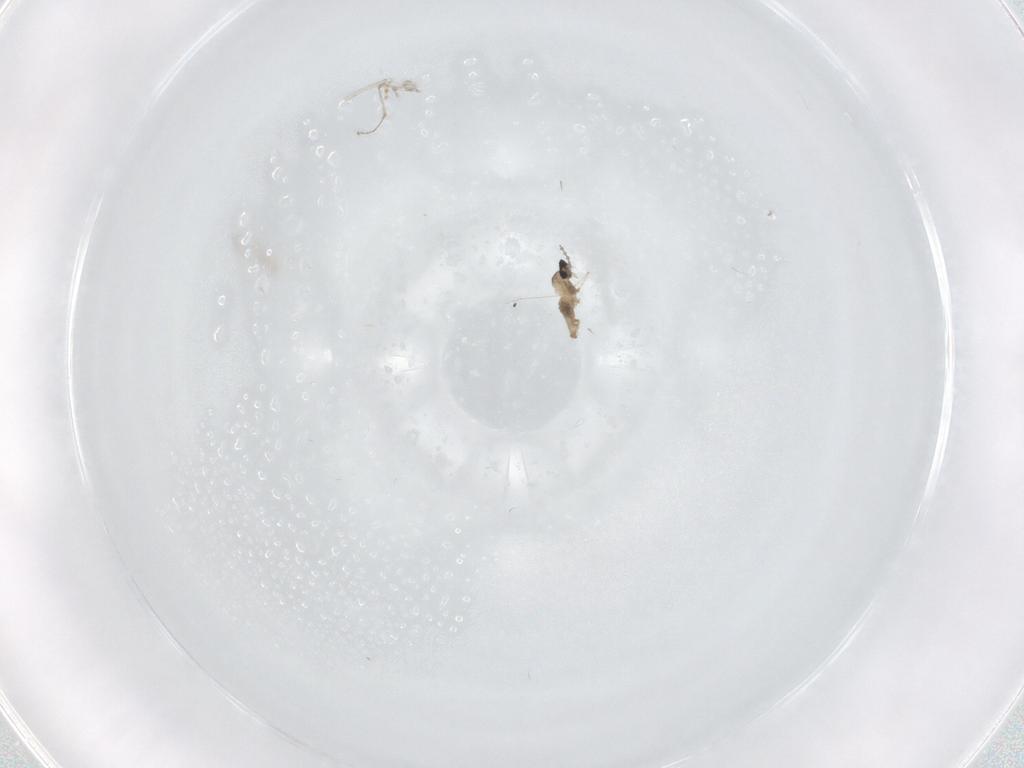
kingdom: Animalia
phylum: Arthropoda
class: Insecta
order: Diptera
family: Cecidomyiidae
